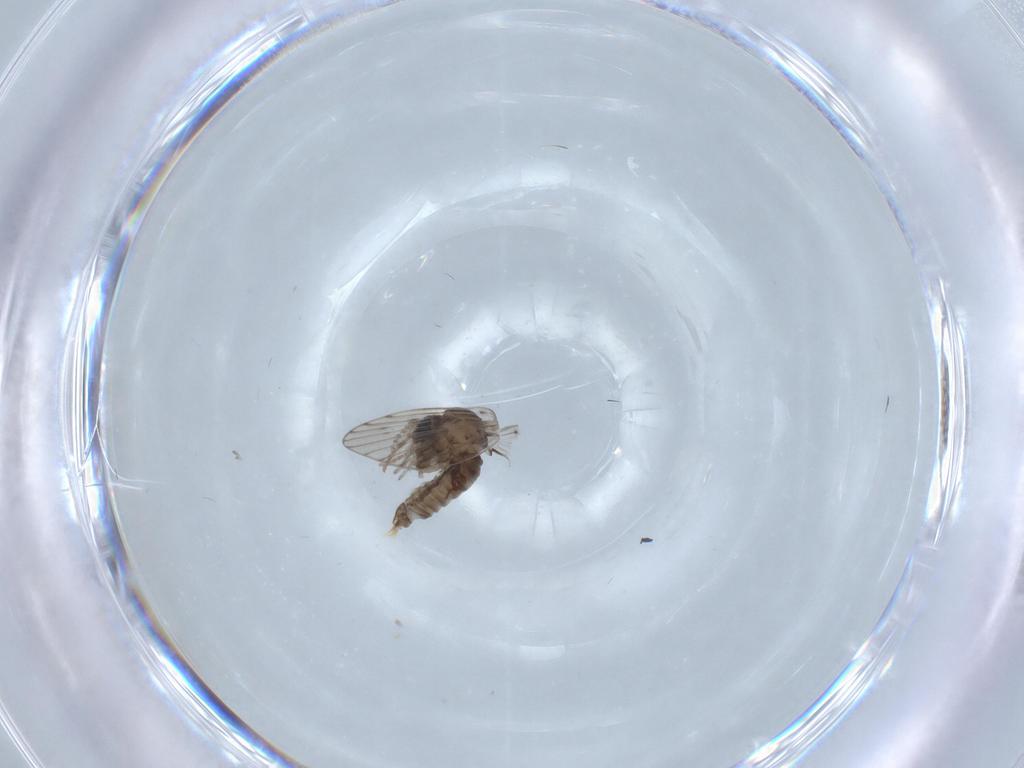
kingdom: Animalia
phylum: Arthropoda
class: Insecta
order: Diptera
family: Psychodidae
